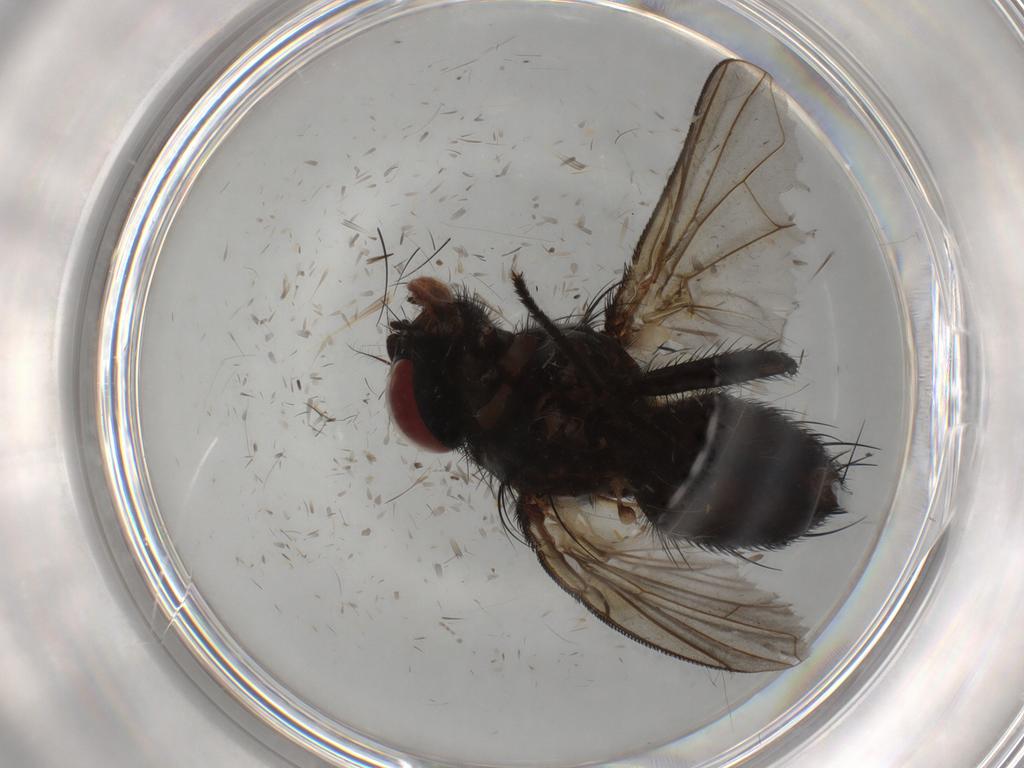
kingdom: Animalia
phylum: Arthropoda
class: Insecta
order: Diptera
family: Tachinidae
